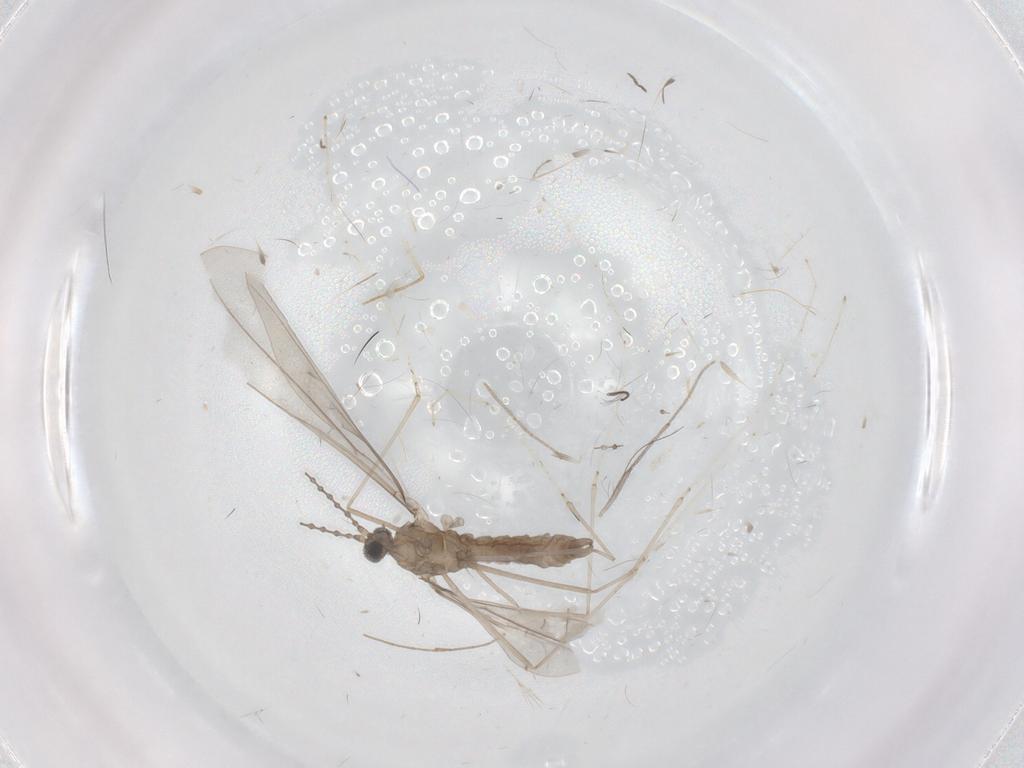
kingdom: Animalia
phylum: Arthropoda
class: Insecta
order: Diptera
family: Cecidomyiidae
